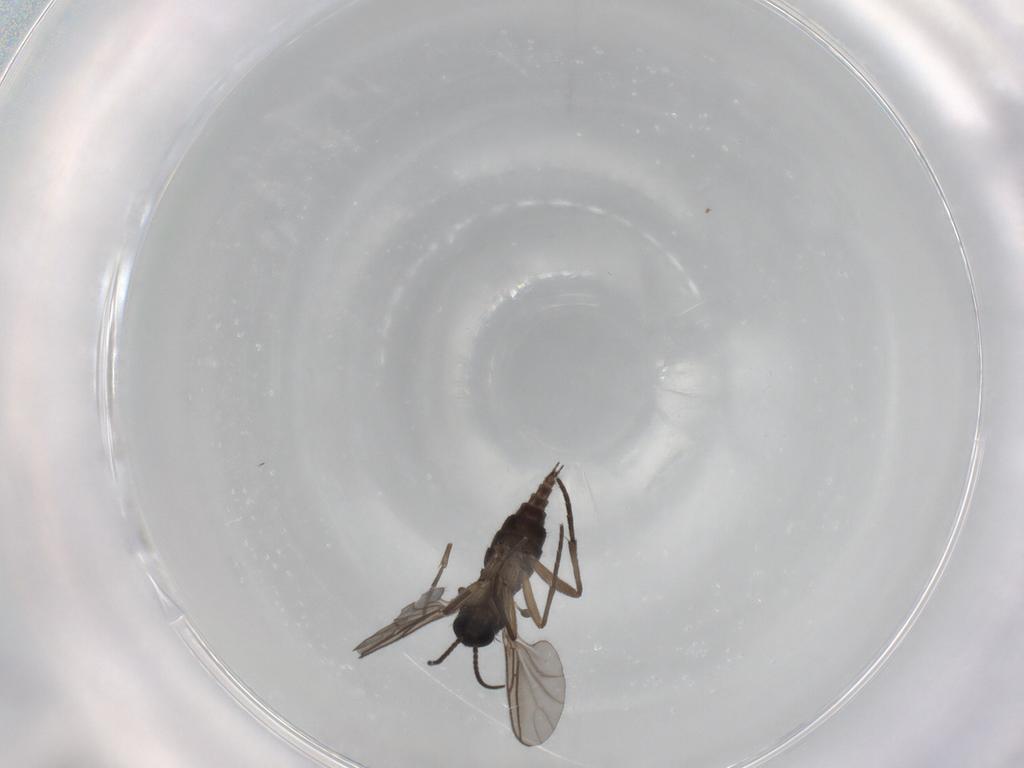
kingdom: Animalia
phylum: Arthropoda
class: Insecta
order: Diptera
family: Sciaridae
